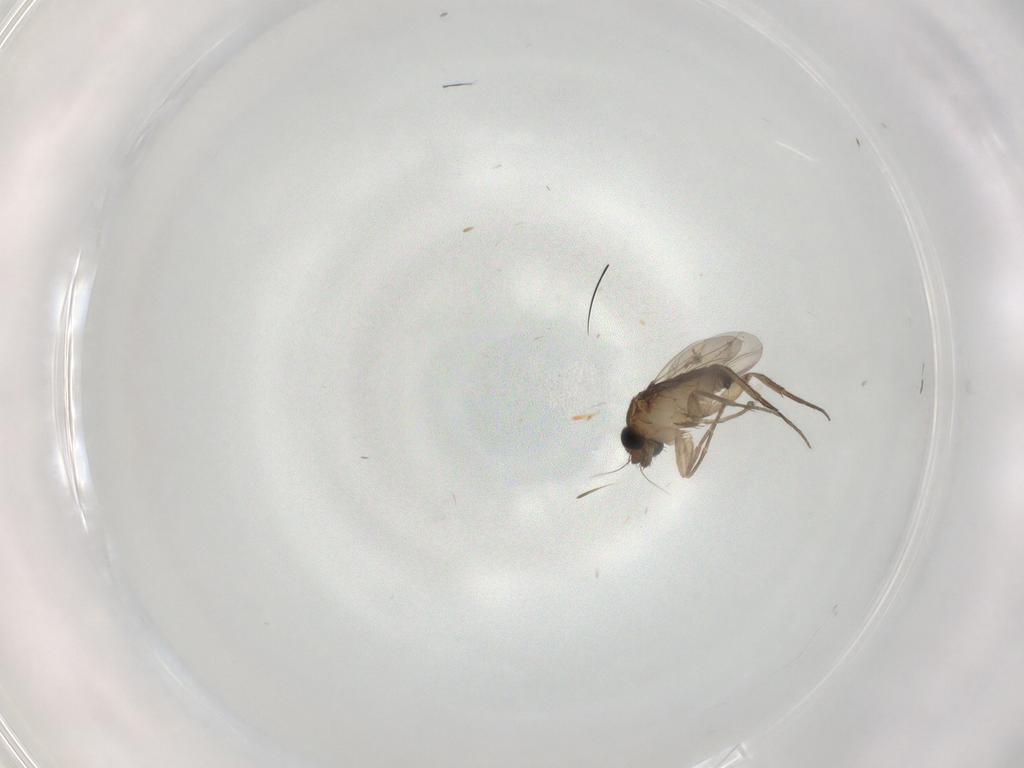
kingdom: Animalia
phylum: Arthropoda
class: Insecta
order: Diptera
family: Phoridae
